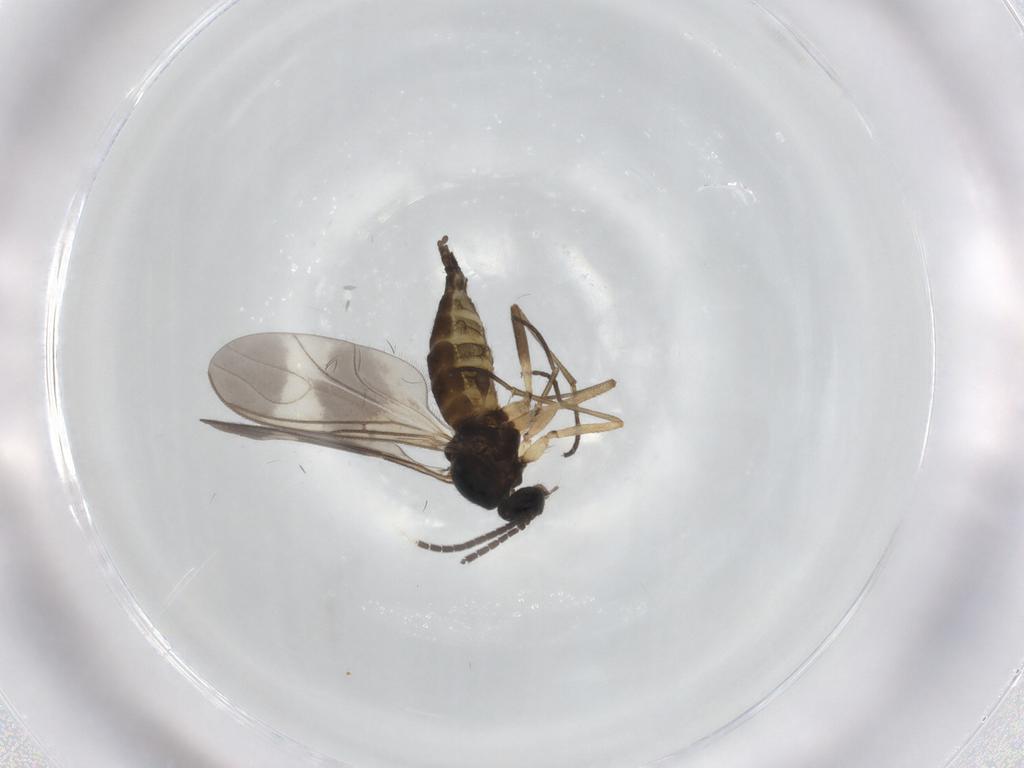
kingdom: Animalia
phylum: Arthropoda
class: Insecta
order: Diptera
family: Sciaridae
